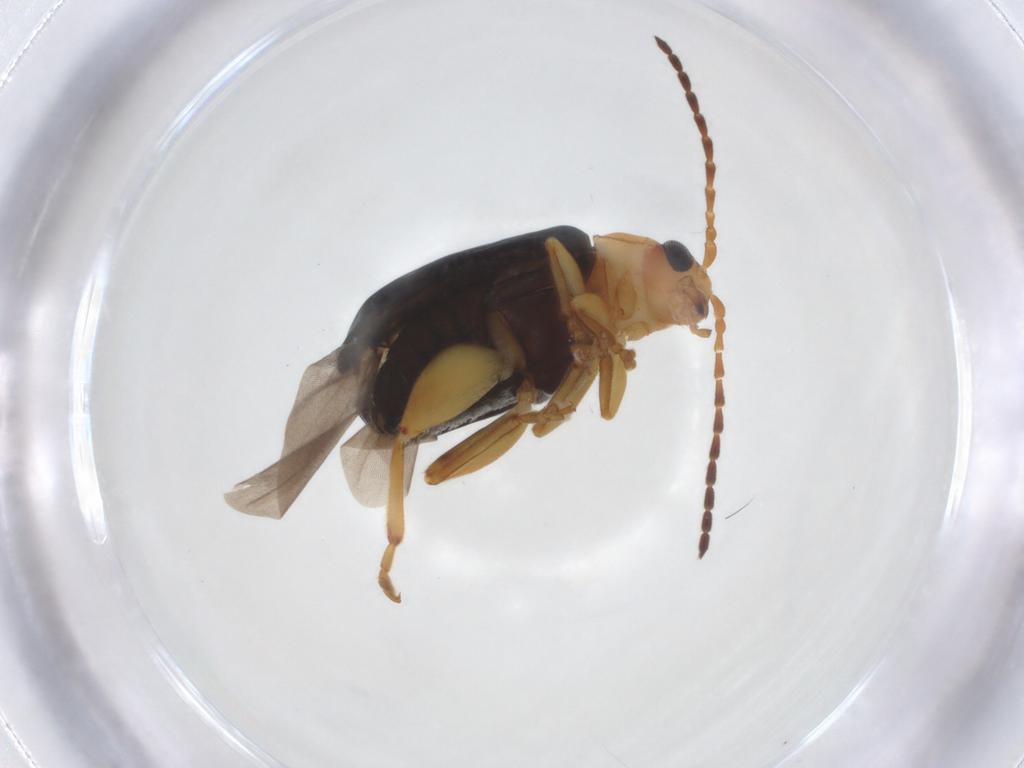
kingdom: Animalia
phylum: Arthropoda
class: Insecta
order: Coleoptera
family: Chrysomelidae
